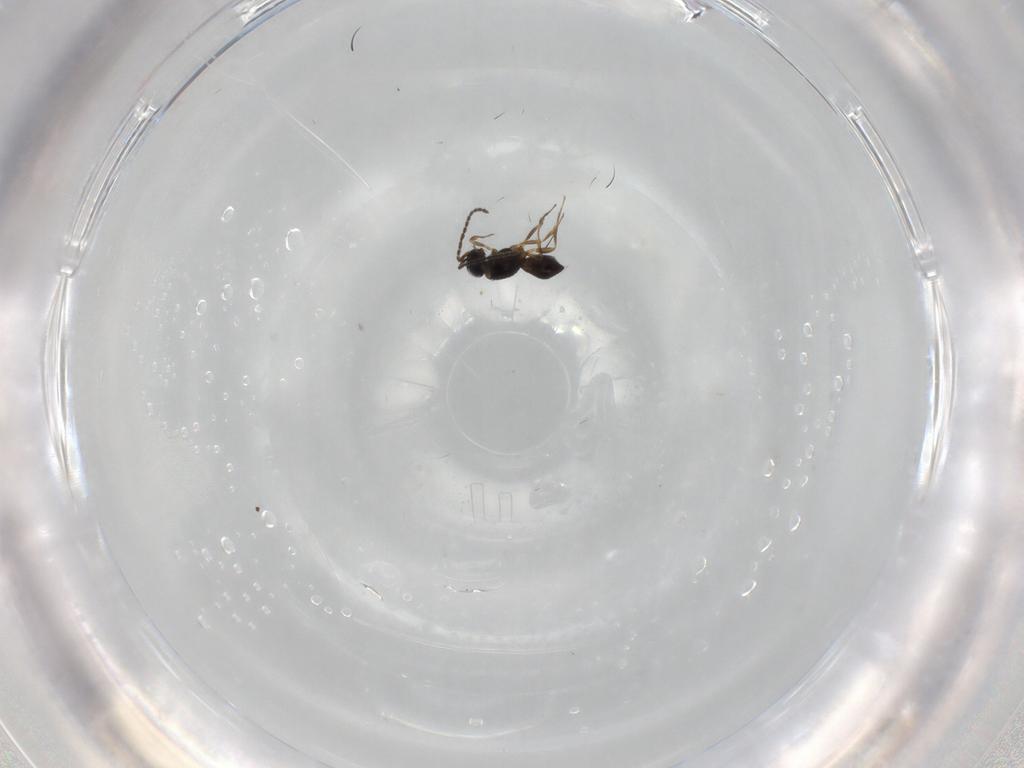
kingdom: Animalia
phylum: Arthropoda
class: Insecta
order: Hymenoptera
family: Scelionidae
